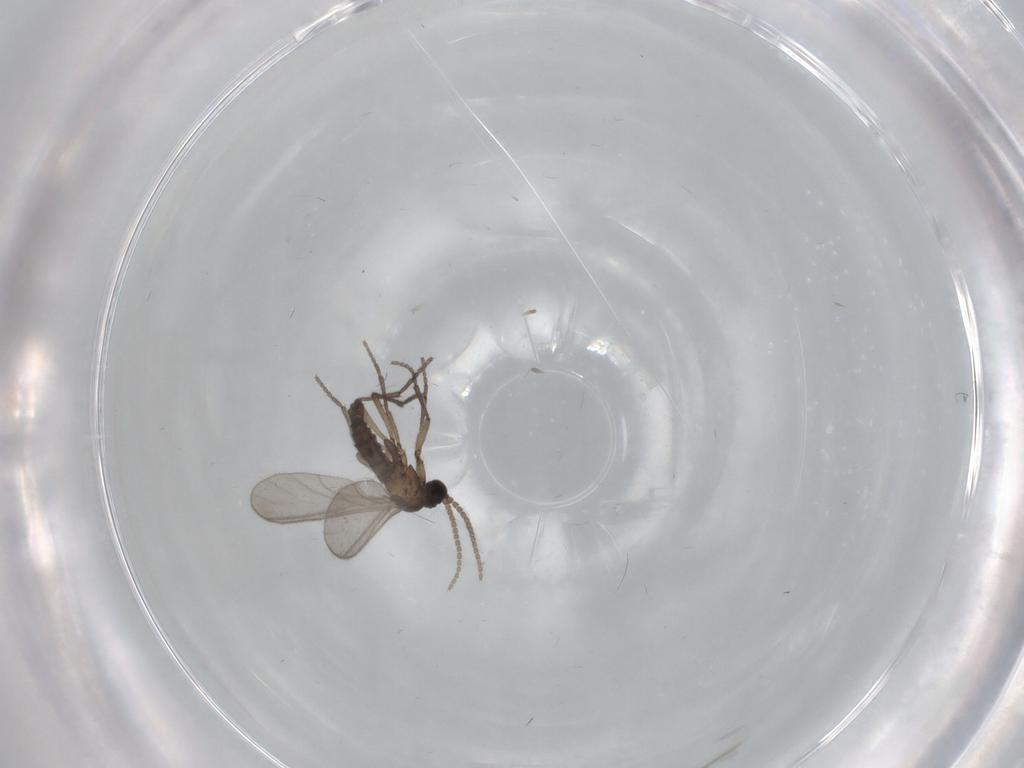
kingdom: Animalia
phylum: Arthropoda
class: Insecta
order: Diptera
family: Sciaridae
